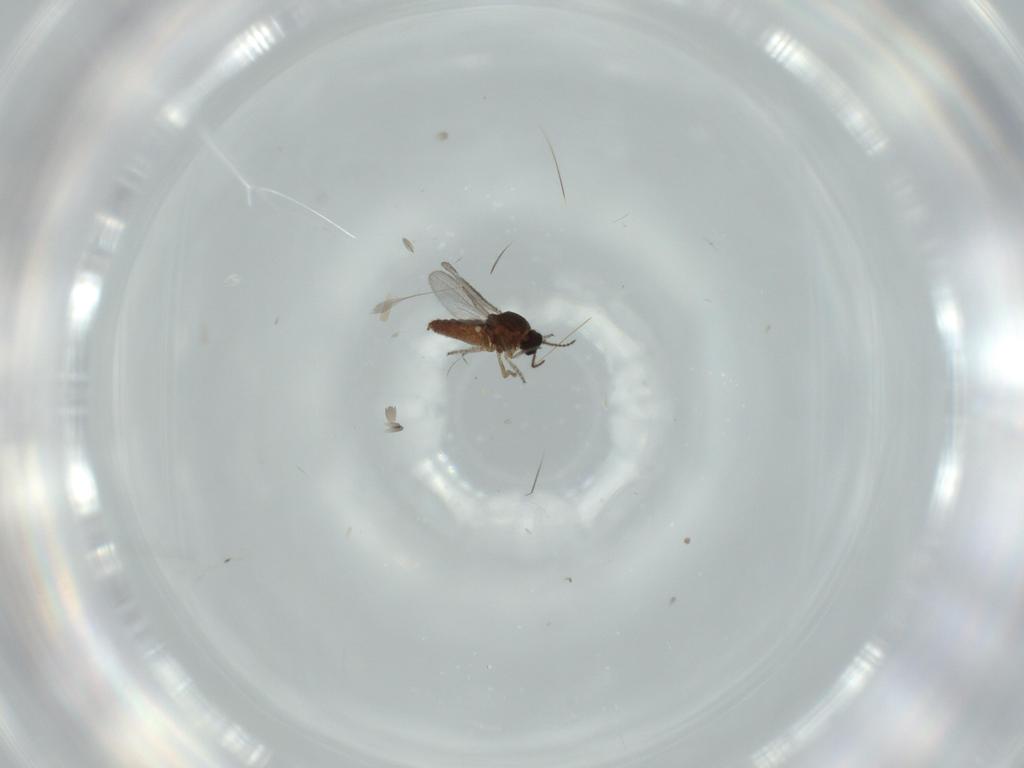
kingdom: Animalia
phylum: Arthropoda
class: Insecta
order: Diptera
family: Ceratopogonidae
